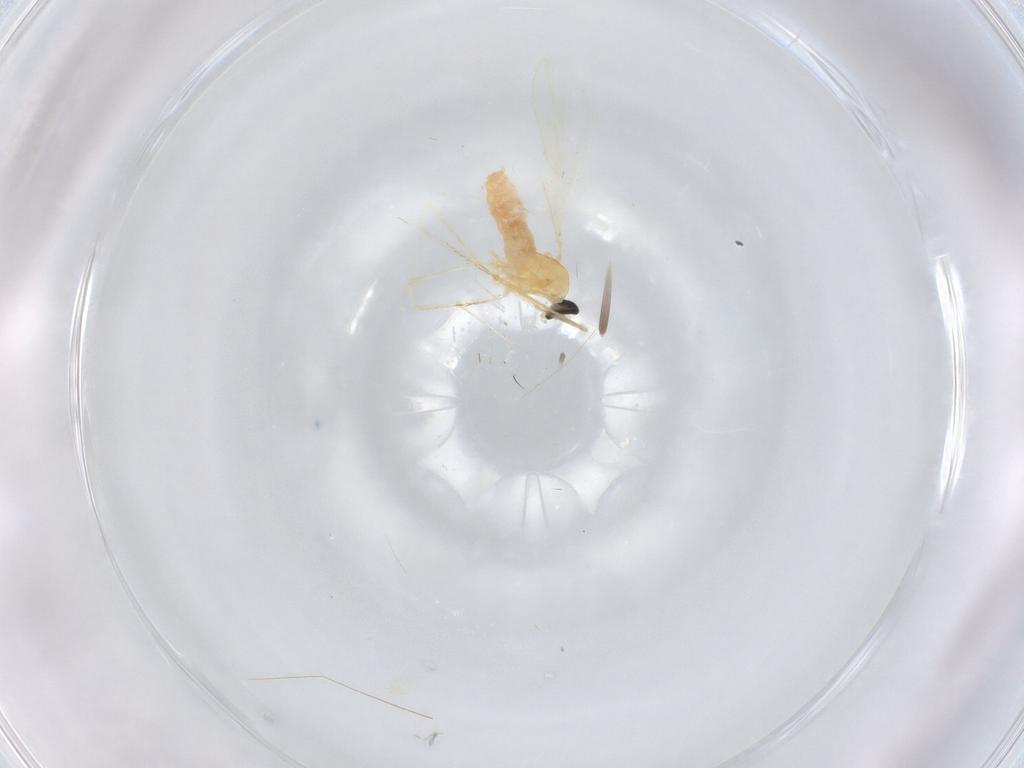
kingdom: Animalia
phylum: Arthropoda
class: Insecta
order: Diptera
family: Cecidomyiidae
